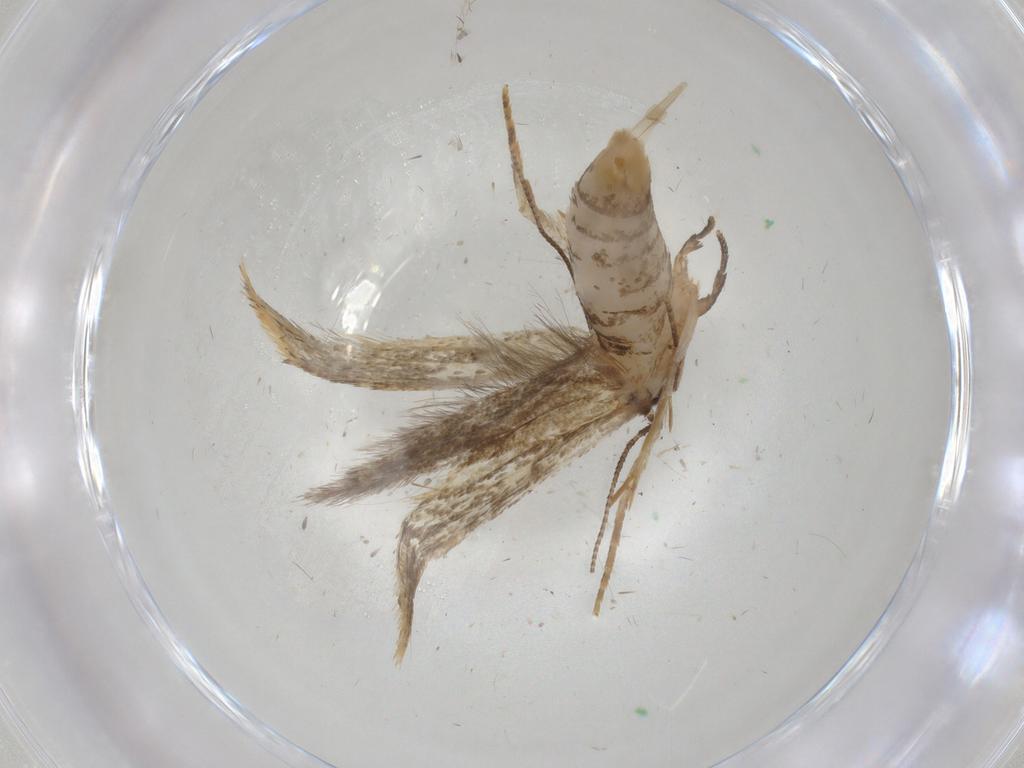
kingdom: Animalia
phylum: Arthropoda
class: Insecta
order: Lepidoptera
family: Tineidae
